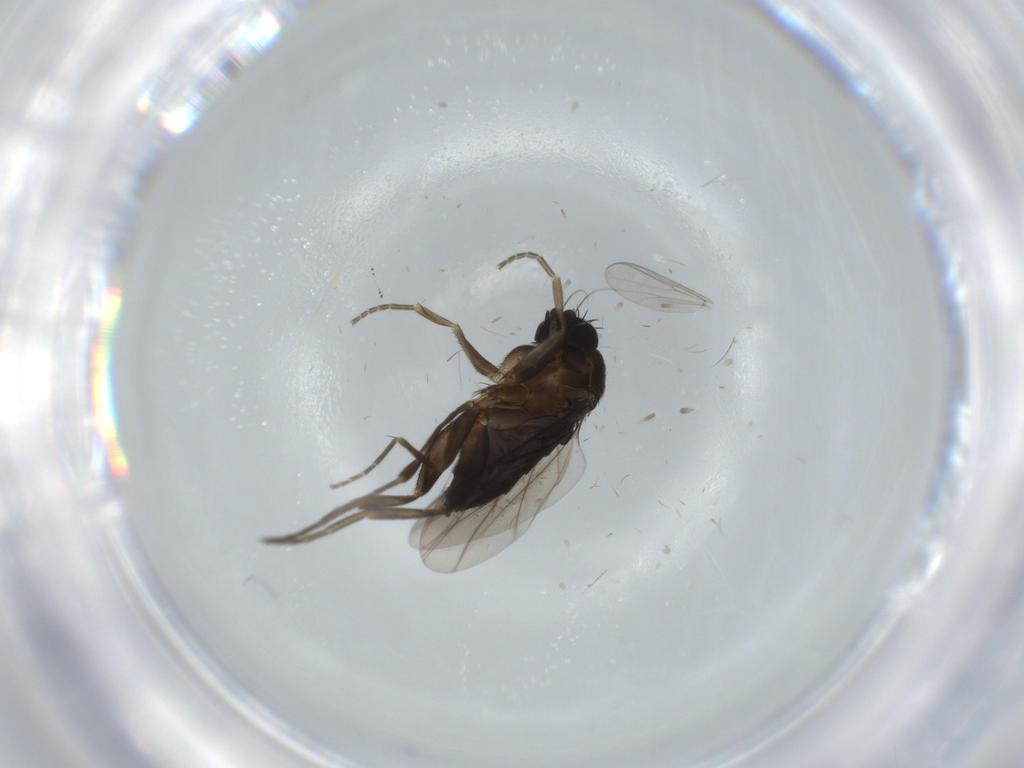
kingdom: Animalia
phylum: Arthropoda
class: Insecta
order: Diptera
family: Phoridae
